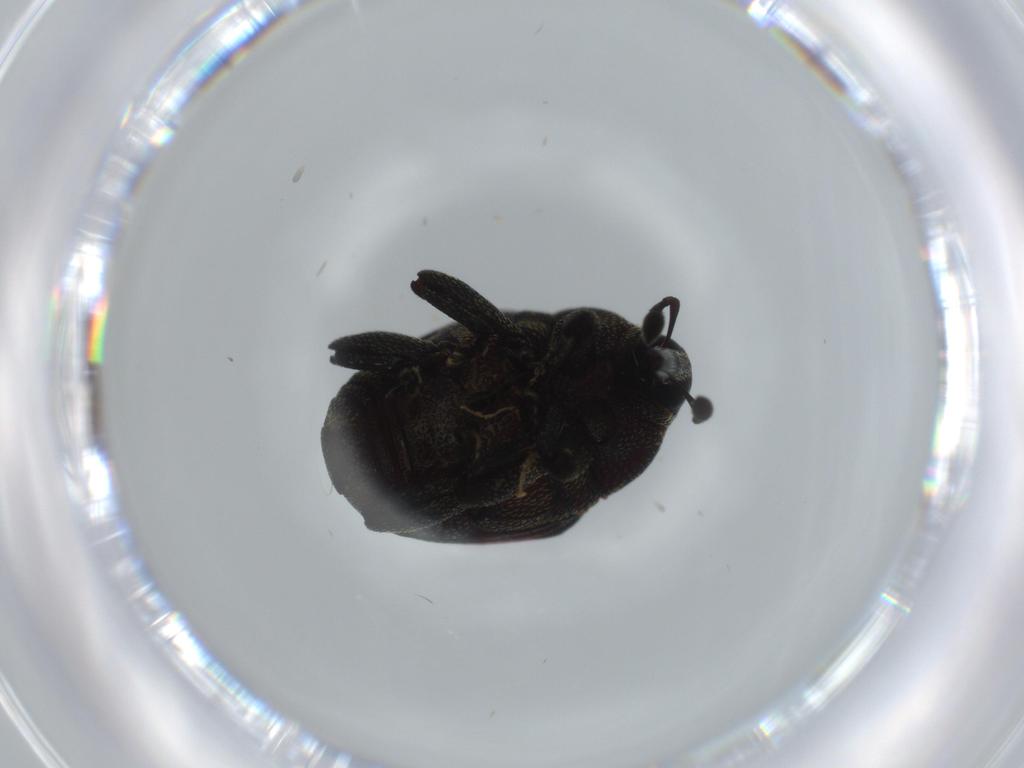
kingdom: Animalia
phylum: Arthropoda
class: Insecta
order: Coleoptera
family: Curculionidae
